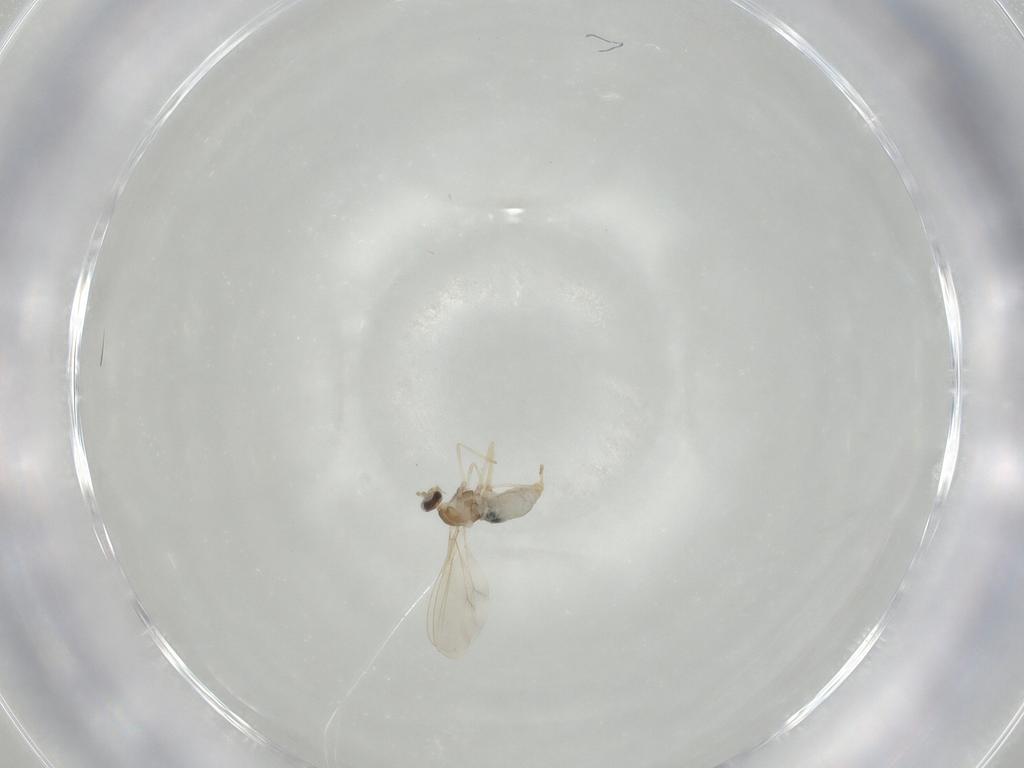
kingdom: Animalia
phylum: Arthropoda
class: Insecta
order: Diptera
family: Cecidomyiidae
